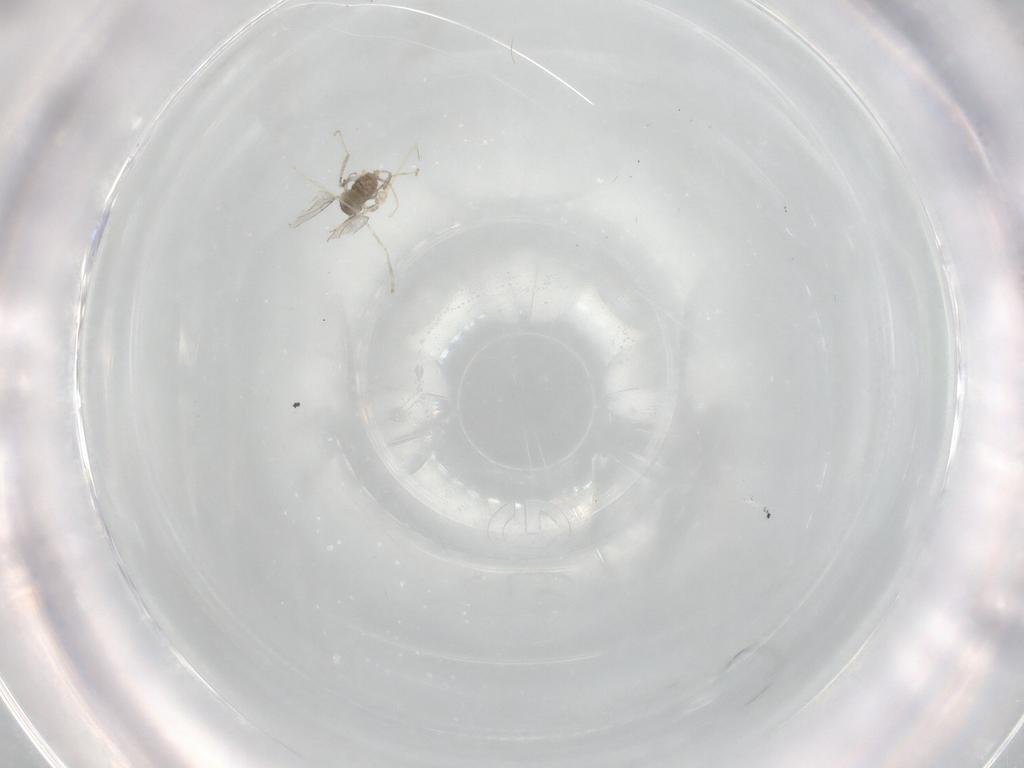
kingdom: Animalia
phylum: Arthropoda
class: Insecta
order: Diptera
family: Cecidomyiidae
